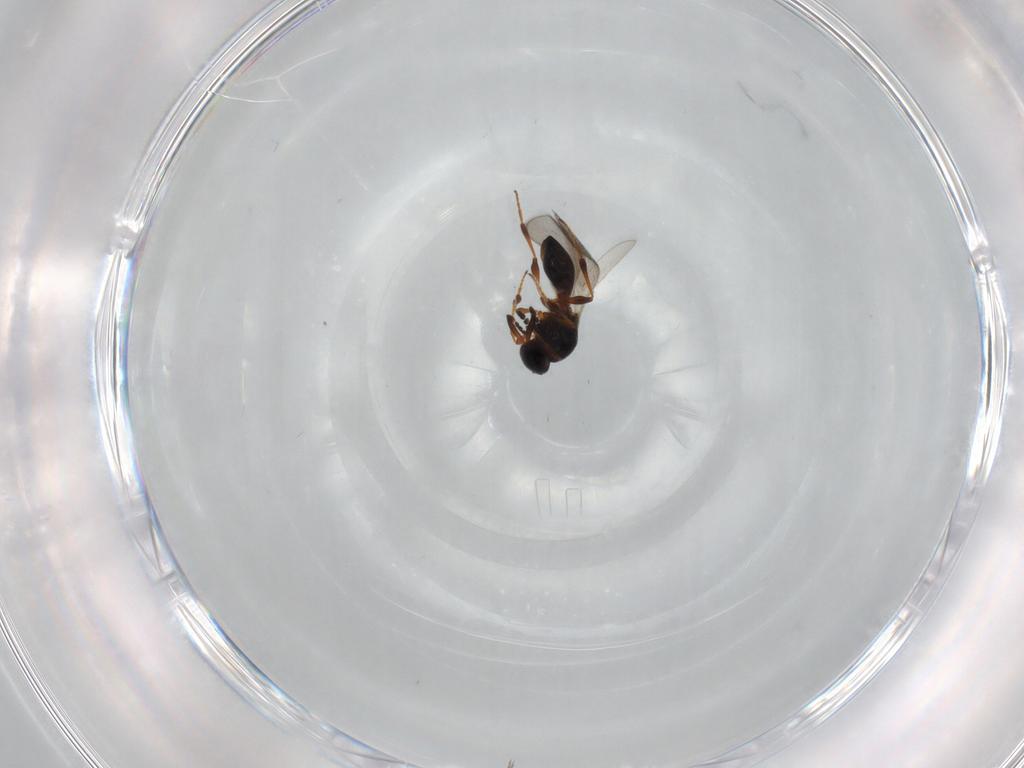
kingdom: Animalia
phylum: Arthropoda
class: Insecta
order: Hymenoptera
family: Platygastridae
